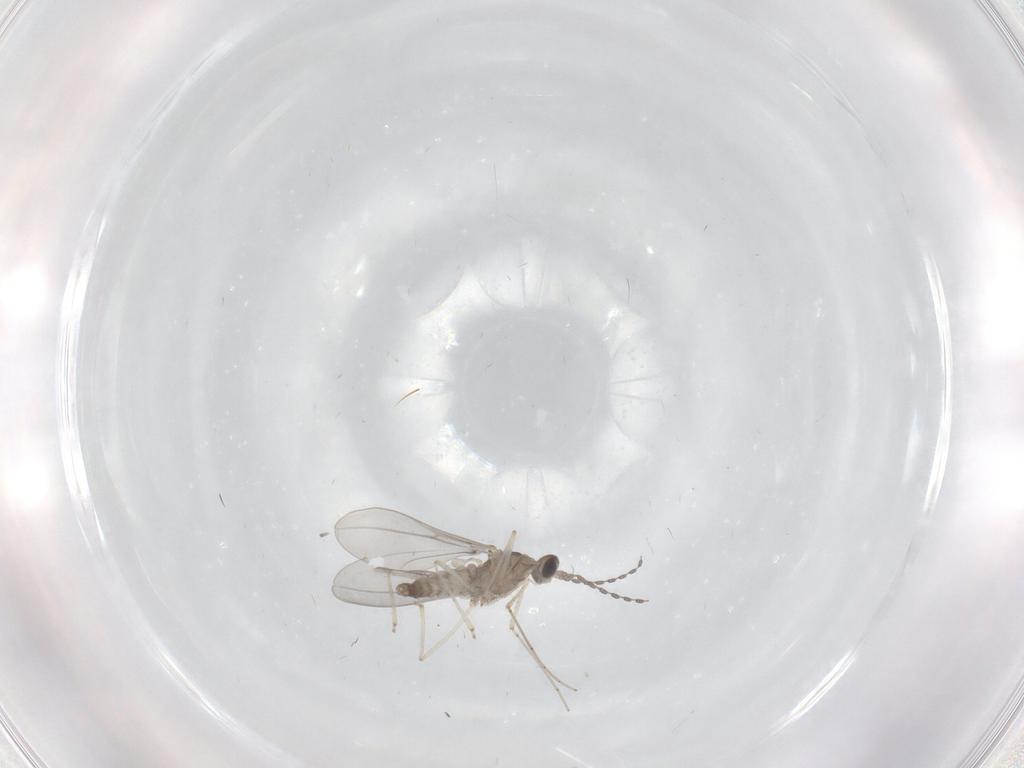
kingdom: Animalia
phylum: Arthropoda
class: Insecta
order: Diptera
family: Cecidomyiidae
